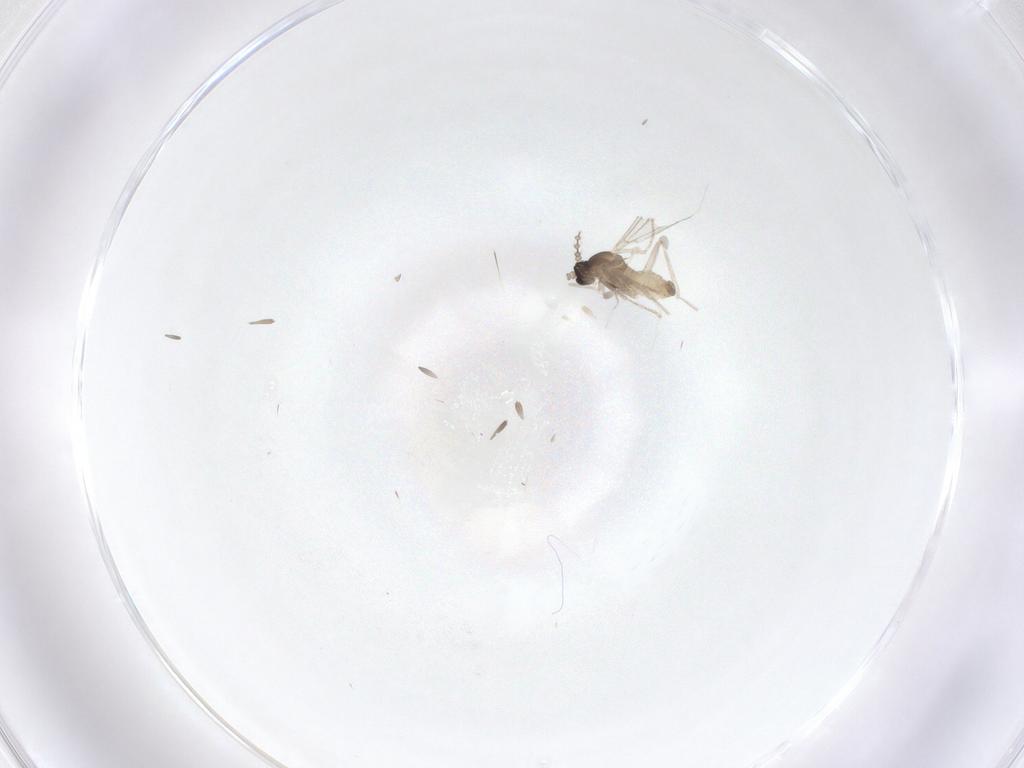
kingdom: Animalia
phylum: Arthropoda
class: Insecta
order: Diptera
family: Cecidomyiidae
